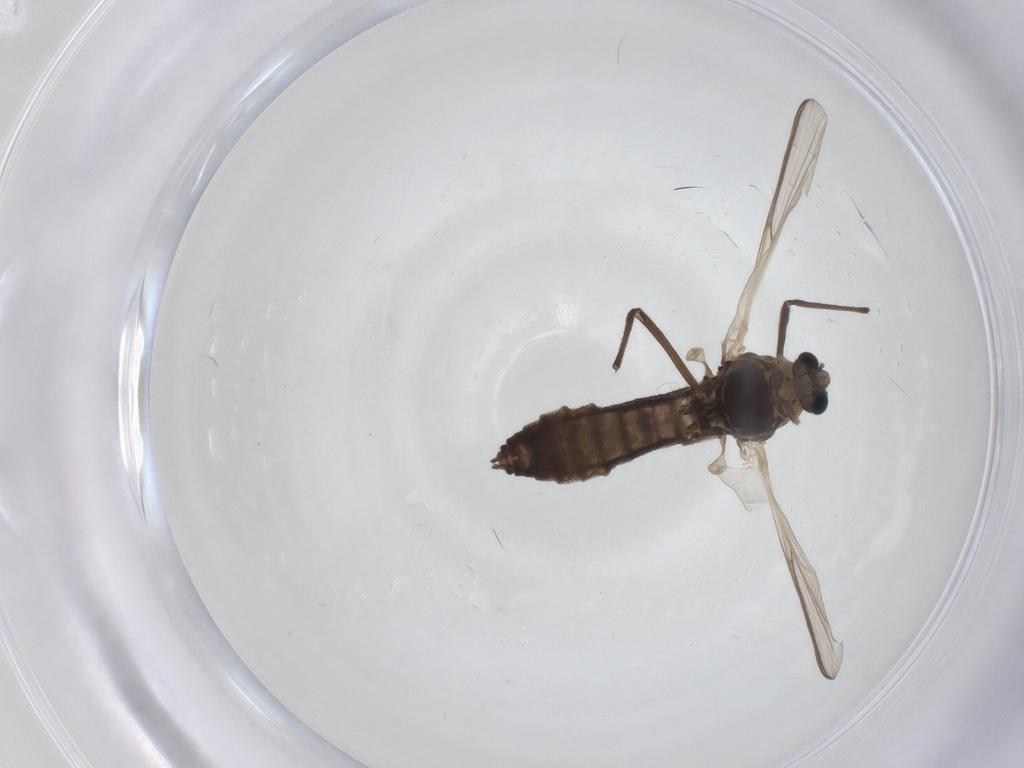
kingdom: Animalia
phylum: Arthropoda
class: Insecta
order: Diptera
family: Chironomidae
